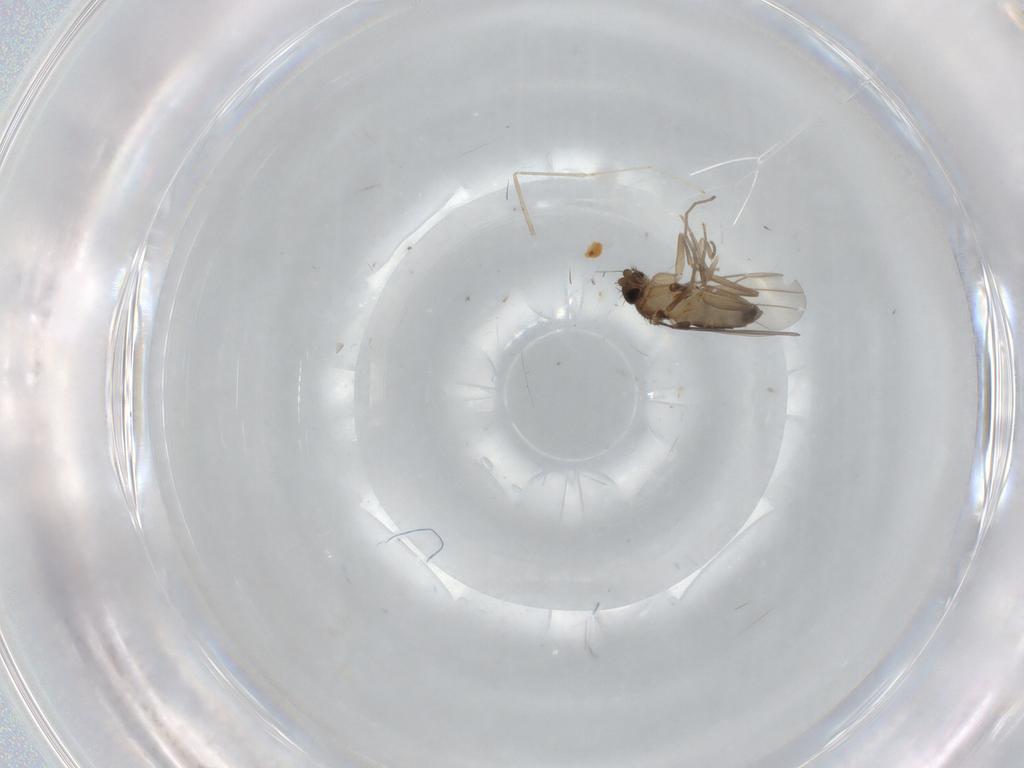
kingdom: Animalia
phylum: Arthropoda
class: Insecta
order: Diptera
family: Phoridae
